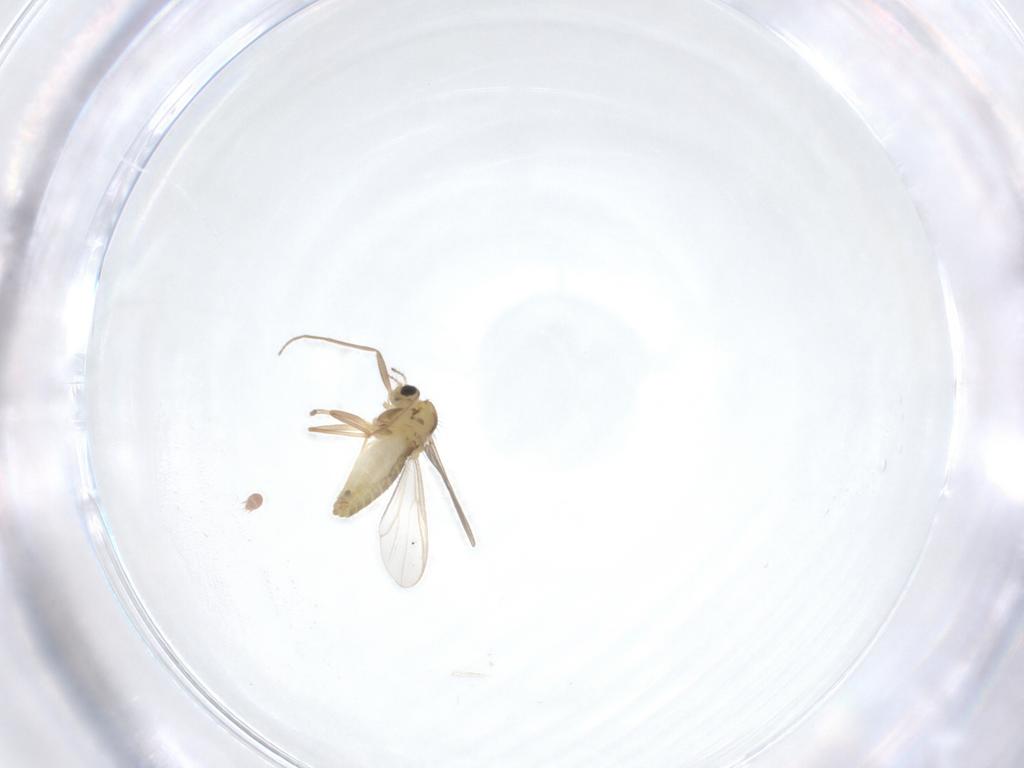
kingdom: Animalia
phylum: Arthropoda
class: Insecta
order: Diptera
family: Chironomidae
